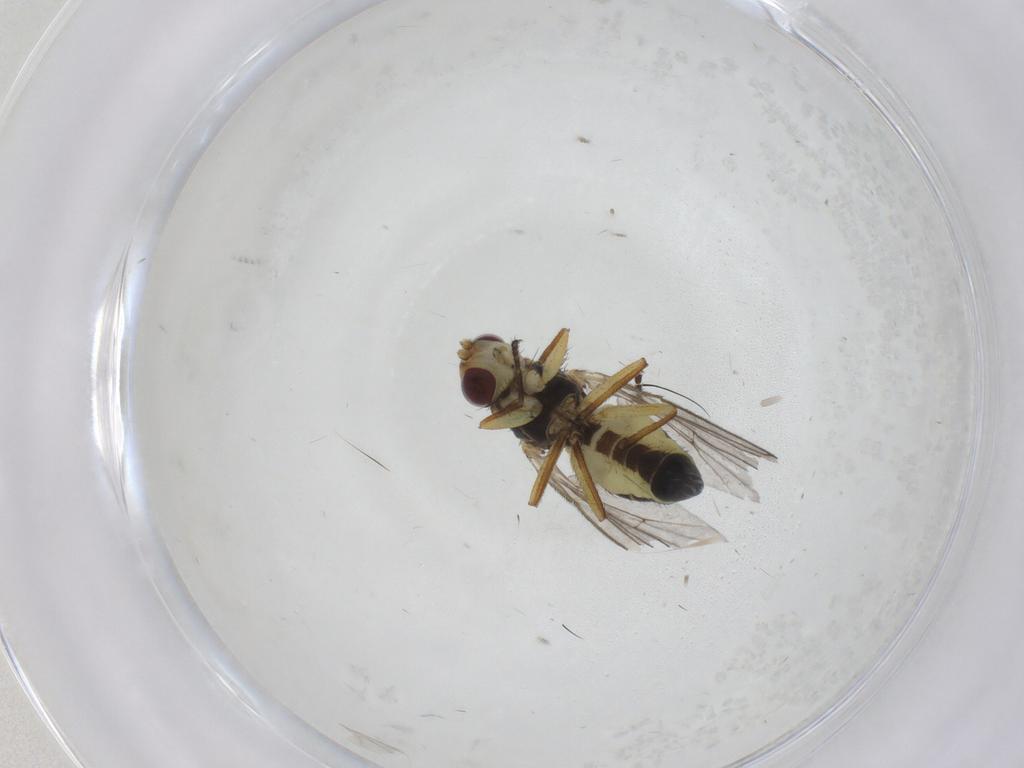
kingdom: Animalia
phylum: Arthropoda
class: Insecta
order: Diptera
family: Agromyzidae
